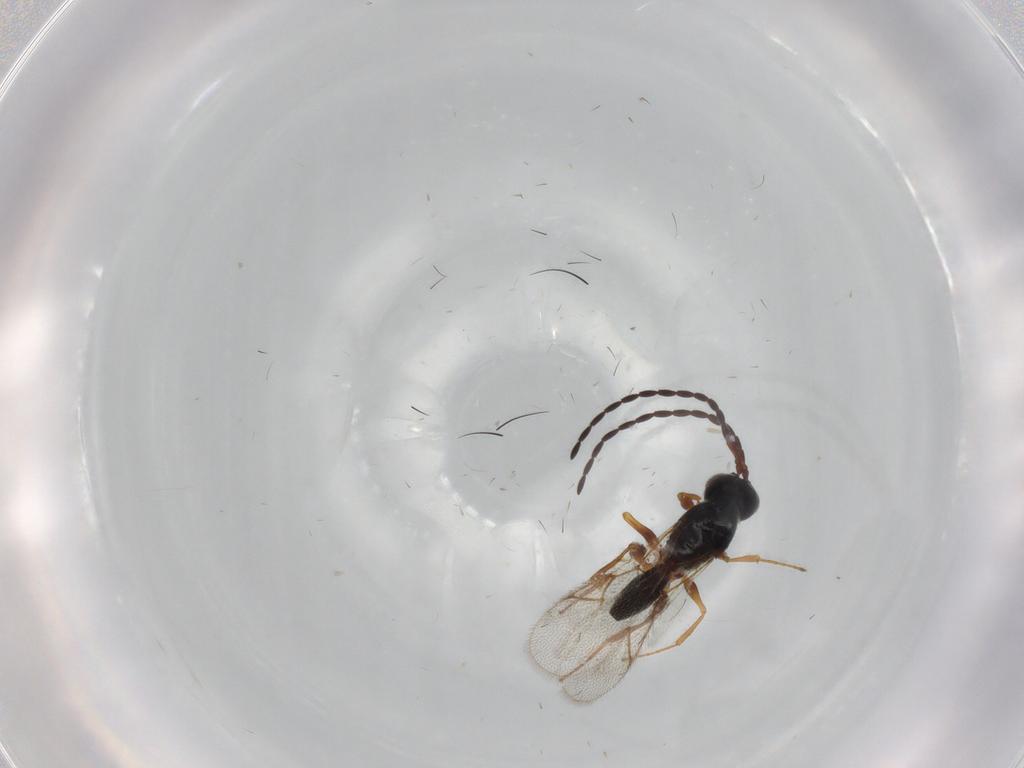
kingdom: Animalia
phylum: Arthropoda
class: Insecta
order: Hymenoptera
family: Figitidae
